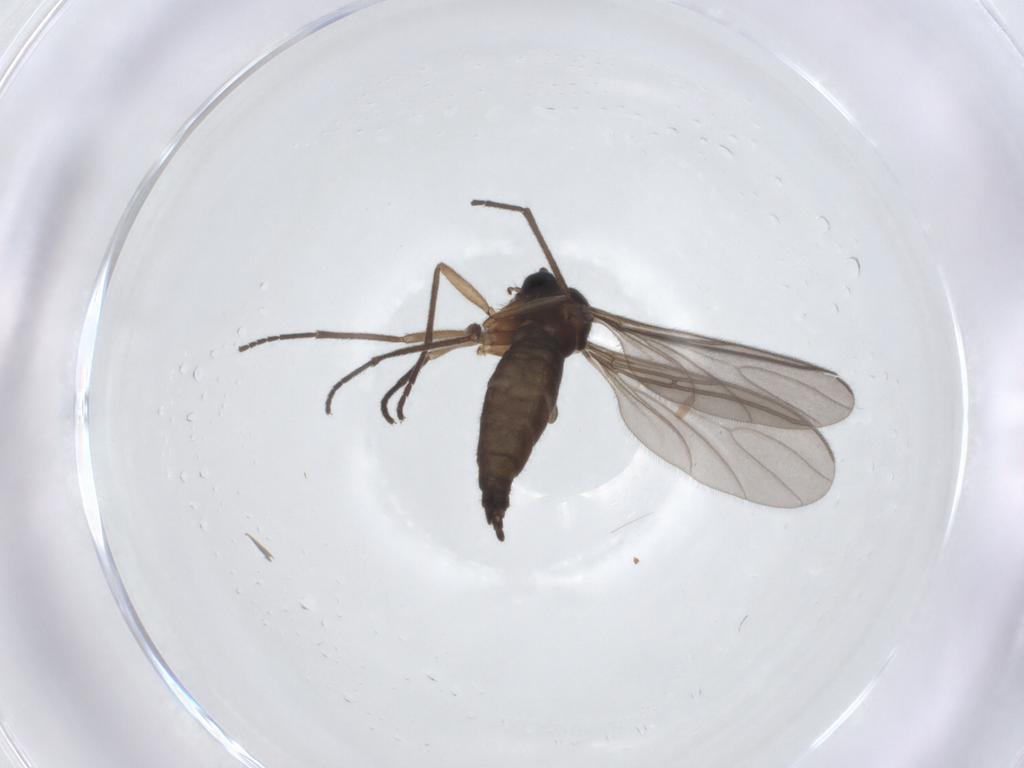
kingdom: Animalia
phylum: Arthropoda
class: Insecta
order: Diptera
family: Sciaridae
